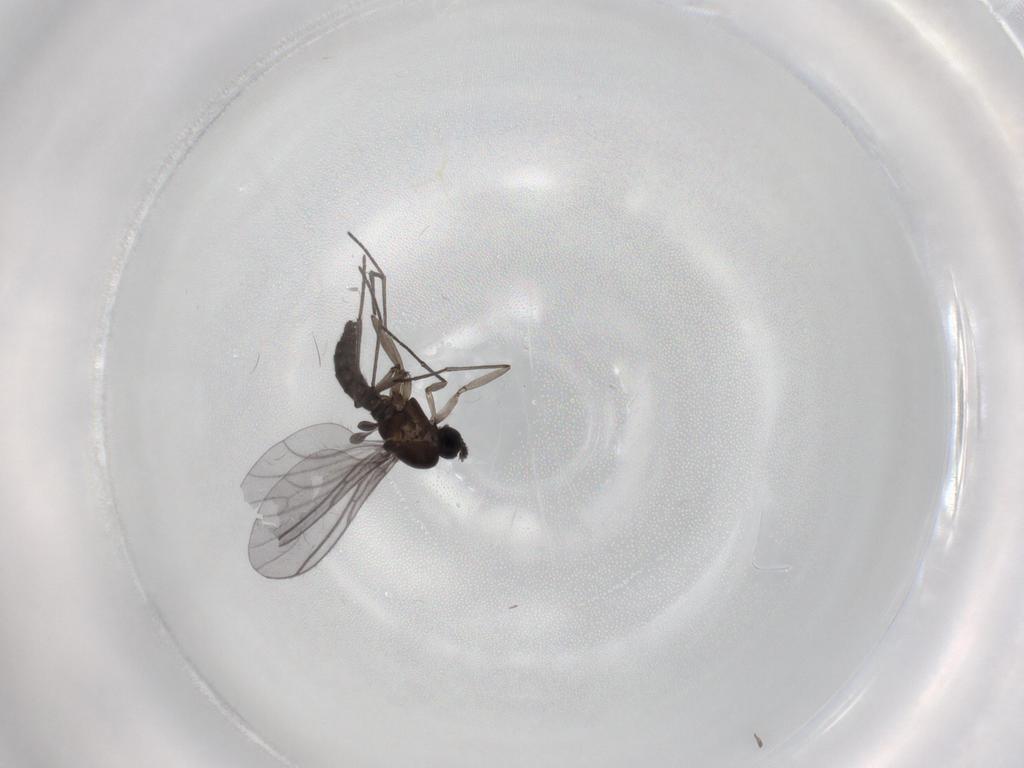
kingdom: Animalia
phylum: Arthropoda
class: Insecta
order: Diptera
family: Sciaridae
